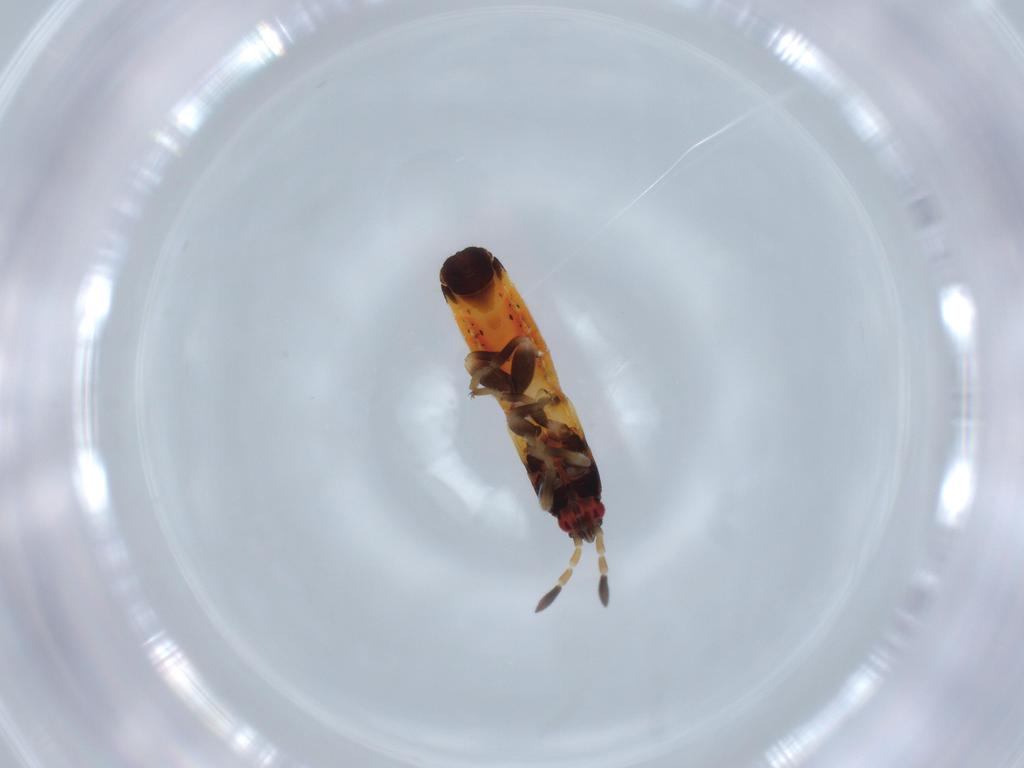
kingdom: Animalia
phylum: Arthropoda
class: Insecta
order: Hemiptera
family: Blissidae
